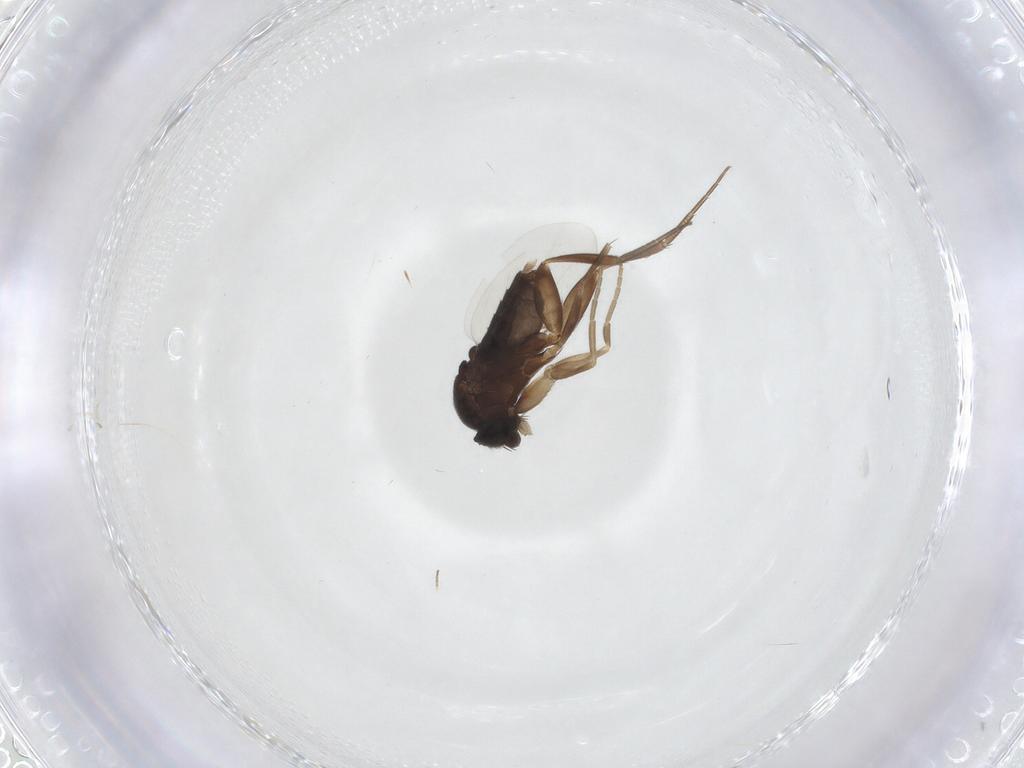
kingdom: Animalia
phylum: Arthropoda
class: Insecta
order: Diptera
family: Phoridae
